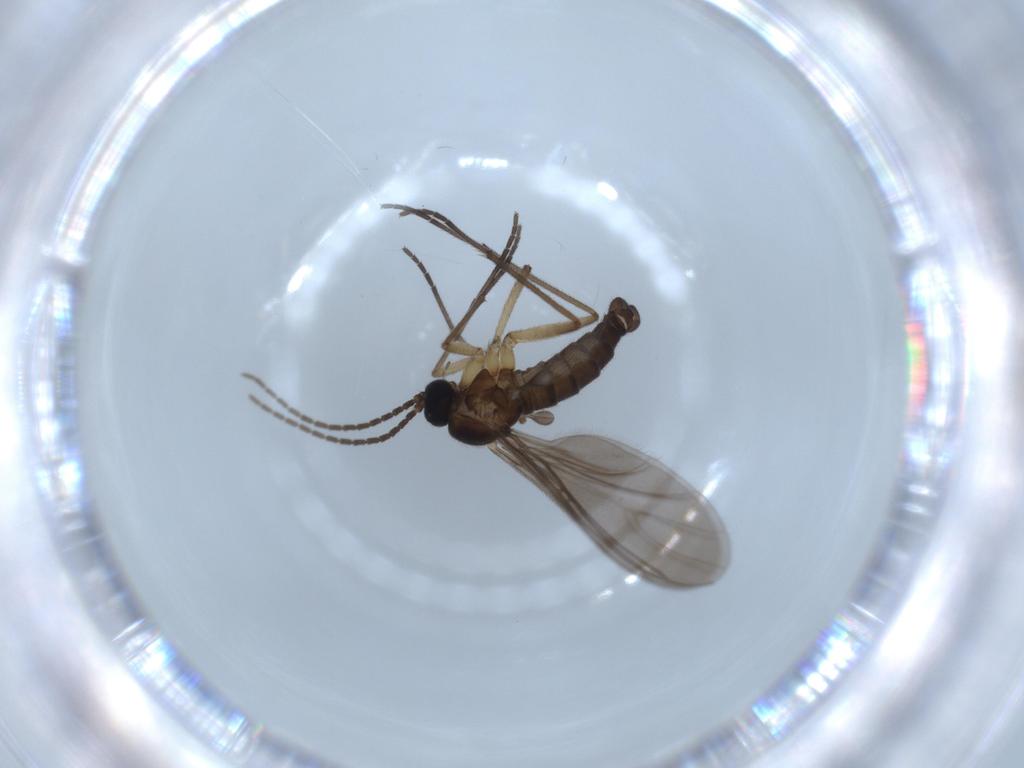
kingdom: Animalia
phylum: Arthropoda
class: Insecta
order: Diptera
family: Sciaridae
